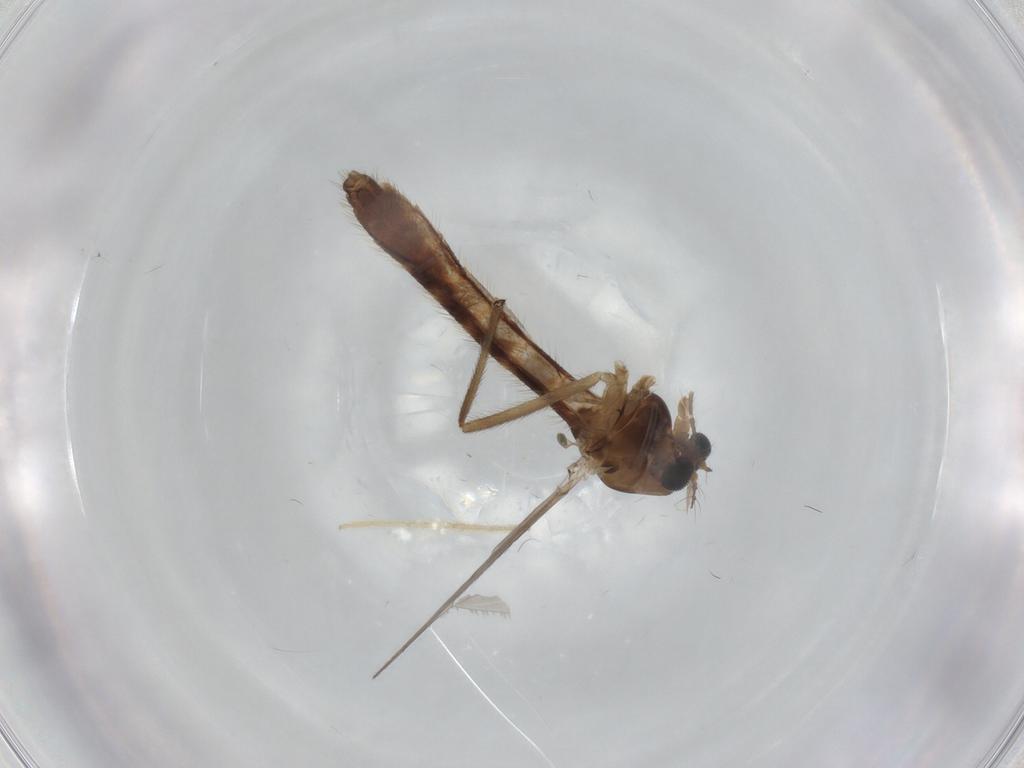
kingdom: Animalia
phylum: Arthropoda
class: Insecta
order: Diptera
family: Chironomidae
